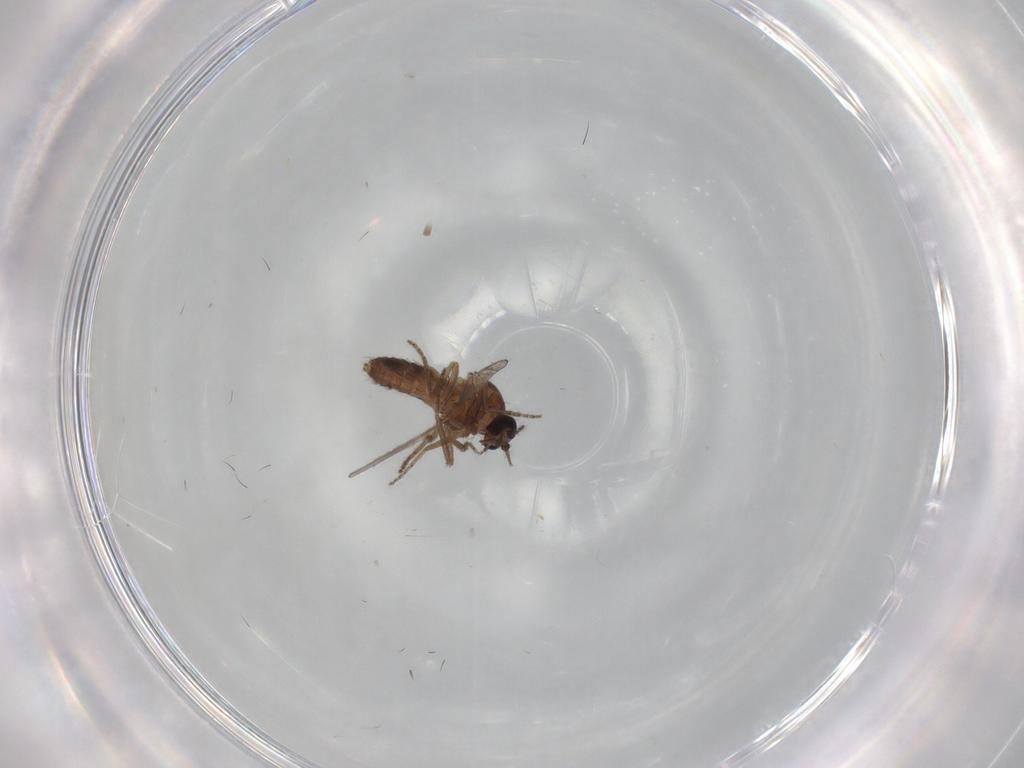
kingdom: Animalia
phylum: Arthropoda
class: Insecta
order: Diptera
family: Ceratopogonidae
